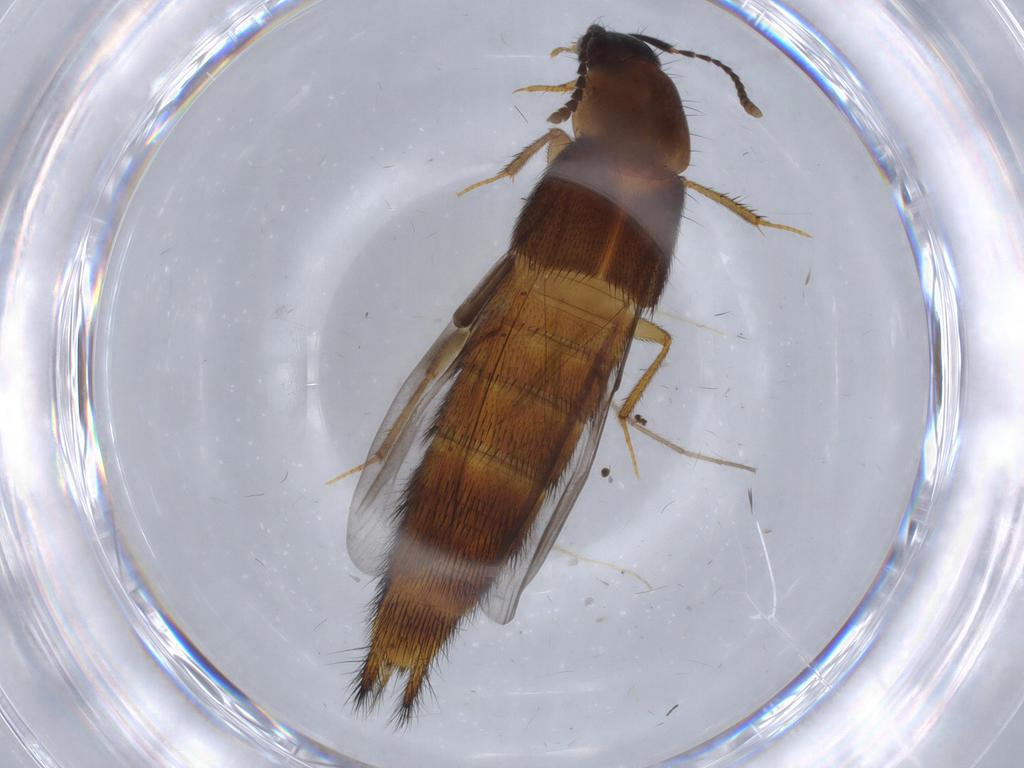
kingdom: Animalia
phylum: Arthropoda
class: Insecta
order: Coleoptera
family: Staphylinidae
